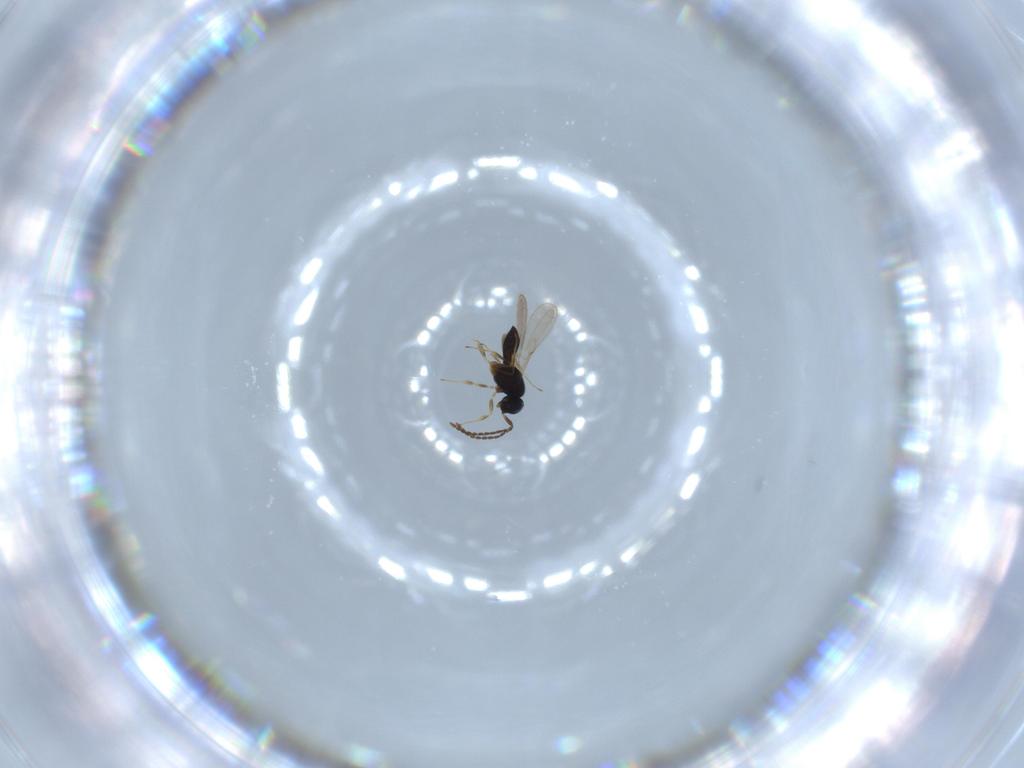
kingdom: Animalia
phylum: Arthropoda
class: Insecta
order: Hymenoptera
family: Scelionidae
